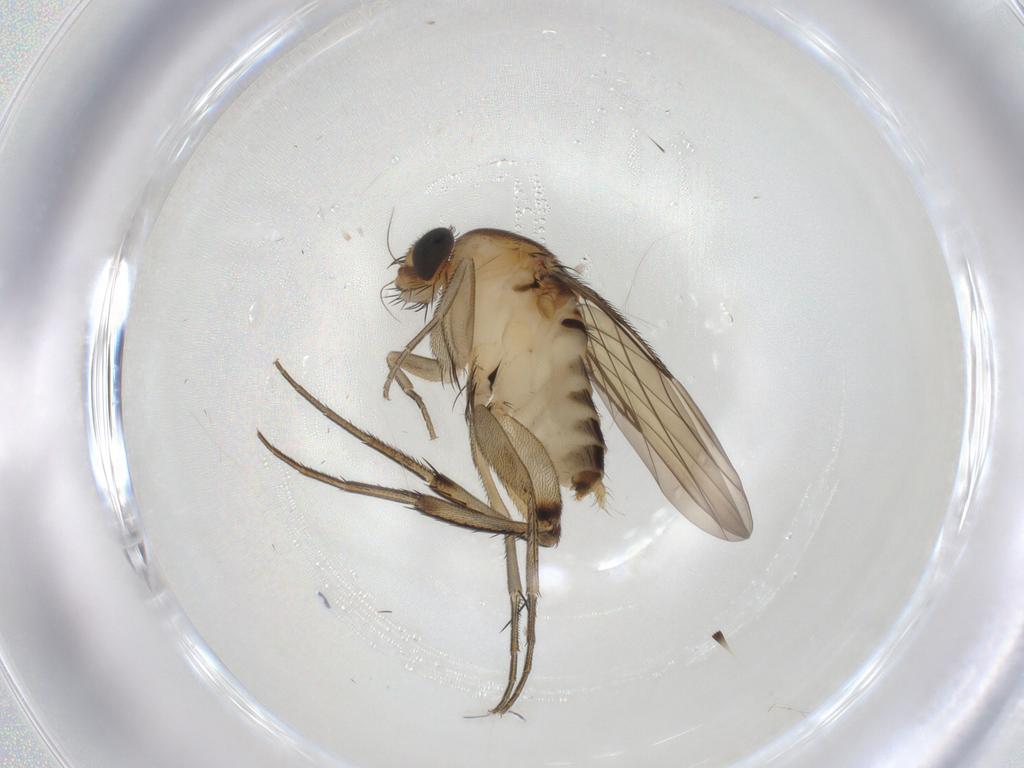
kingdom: Animalia
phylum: Arthropoda
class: Insecta
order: Diptera
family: Phoridae
